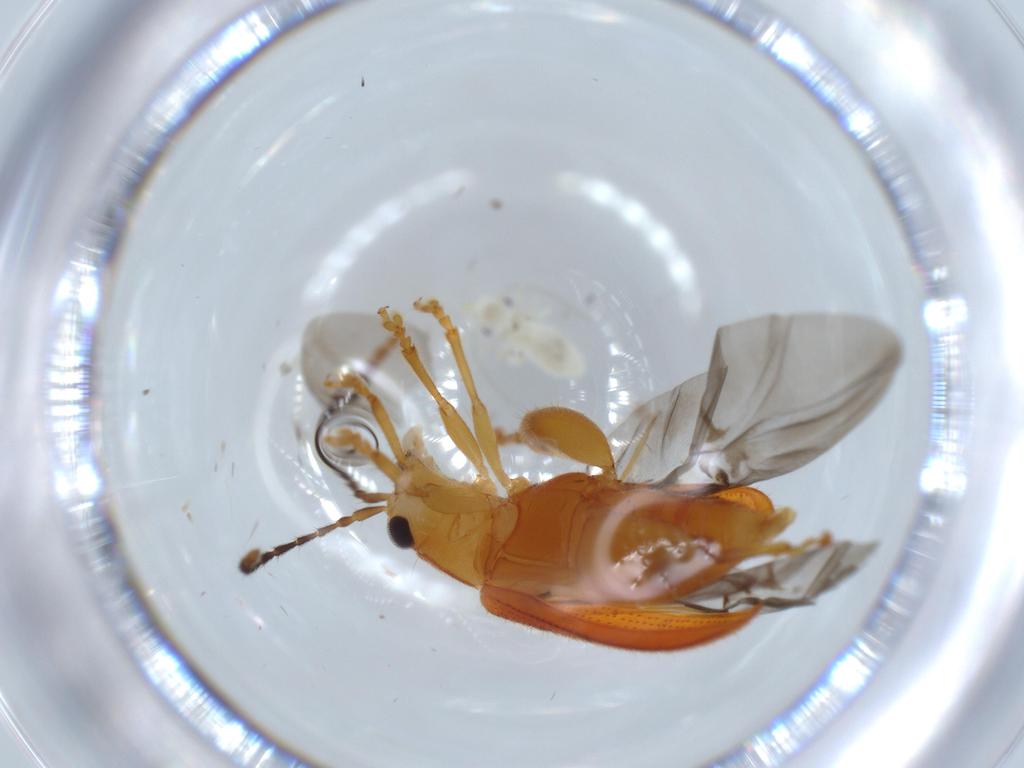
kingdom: Animalia
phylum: Arthropoda
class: Insecta
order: Coleoptera
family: Chrysomelidae
